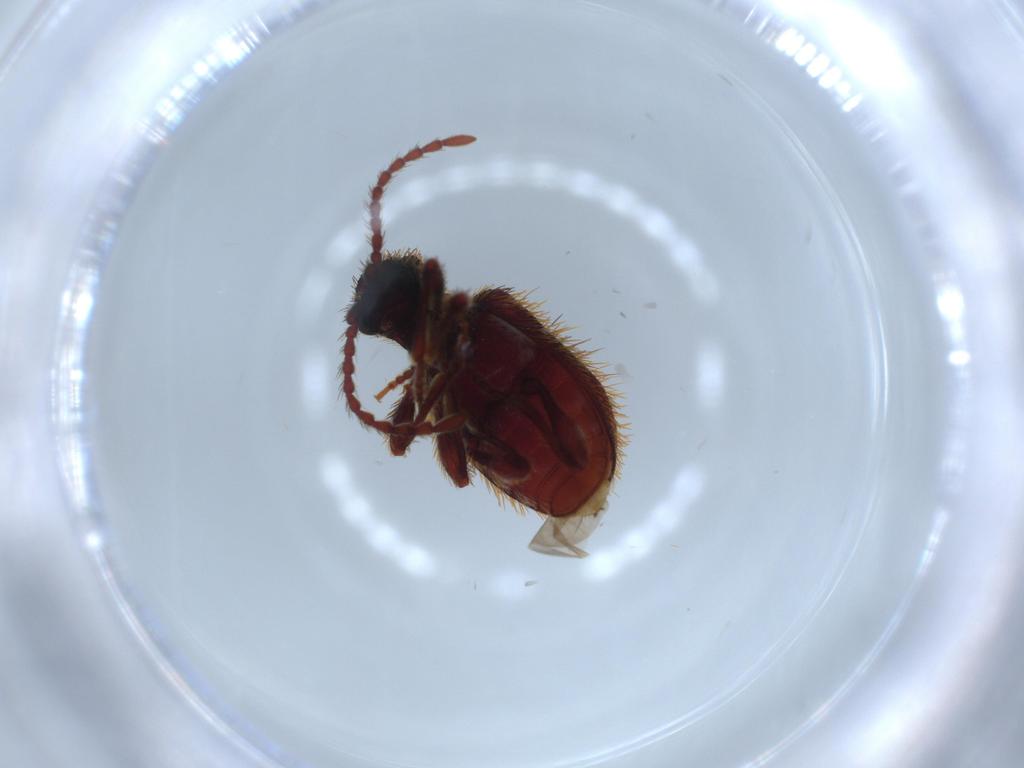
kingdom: Animalia
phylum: Arthropoda
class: Insecta
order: Coleoptera
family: Ptinidae
